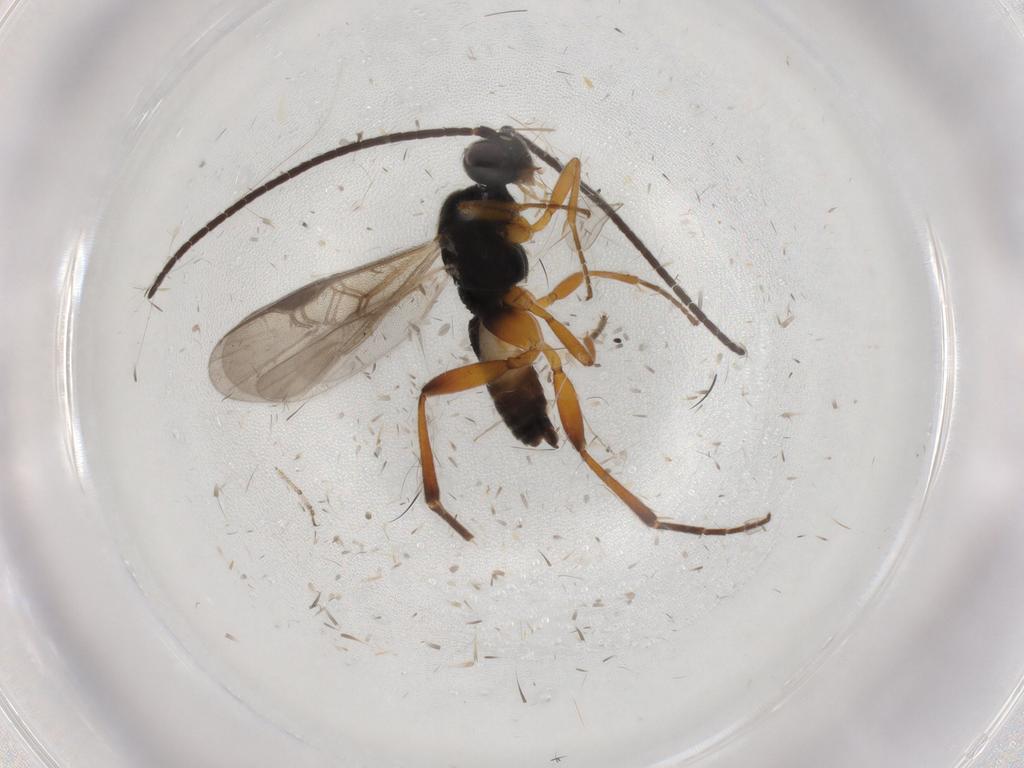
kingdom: Animalia
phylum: Arthropoda
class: Insecta
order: Hymenoptera
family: Braconidae
